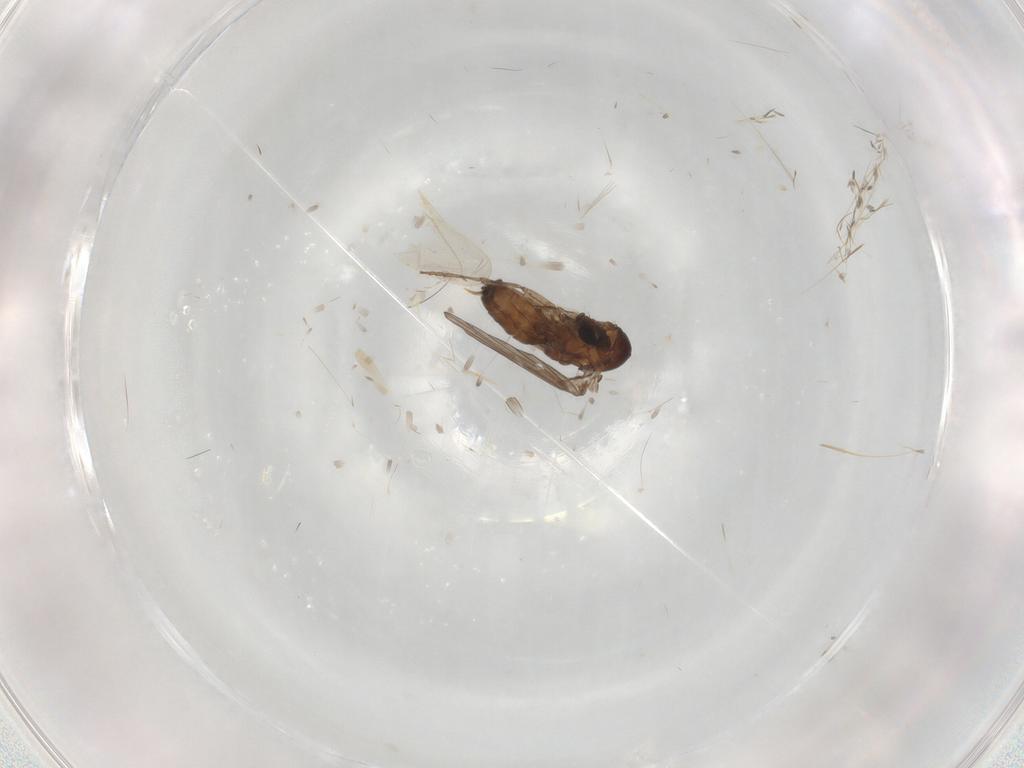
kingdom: Animalia
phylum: Arthropoda
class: Insecta
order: Diptera
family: Psychodidae
